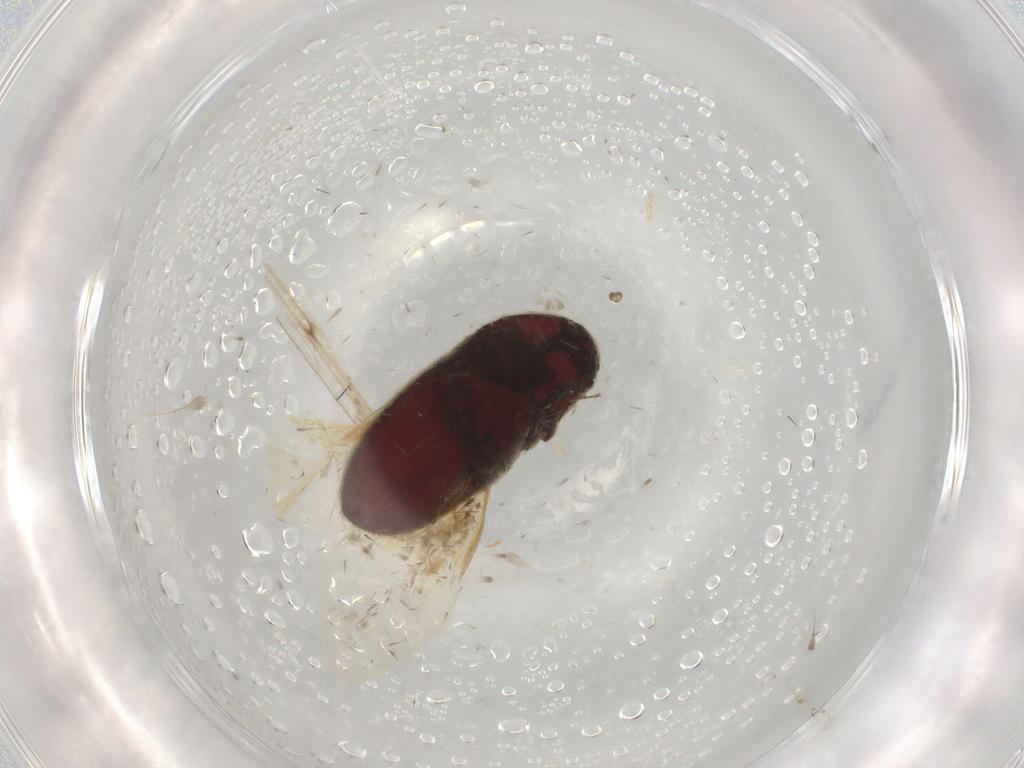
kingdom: Animalia
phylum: Arthropoda
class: Insecta
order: Coleoptera
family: Throscidae
